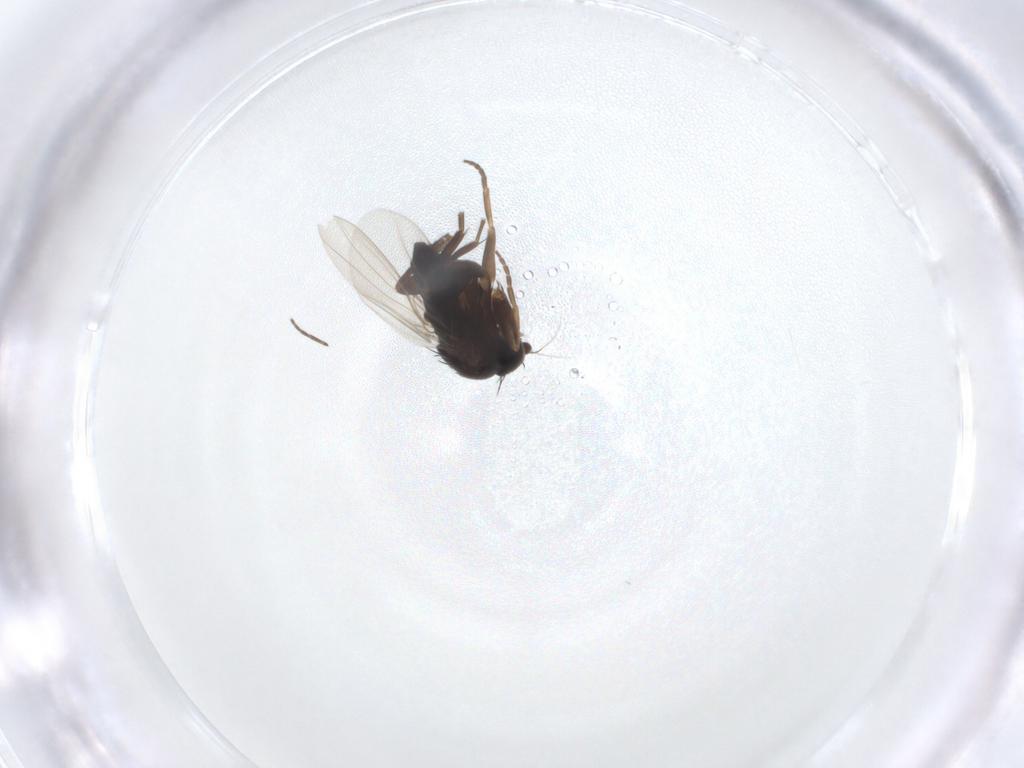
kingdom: Animalia
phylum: Arthropoda
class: Insecta
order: Diptera
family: Phoridae
